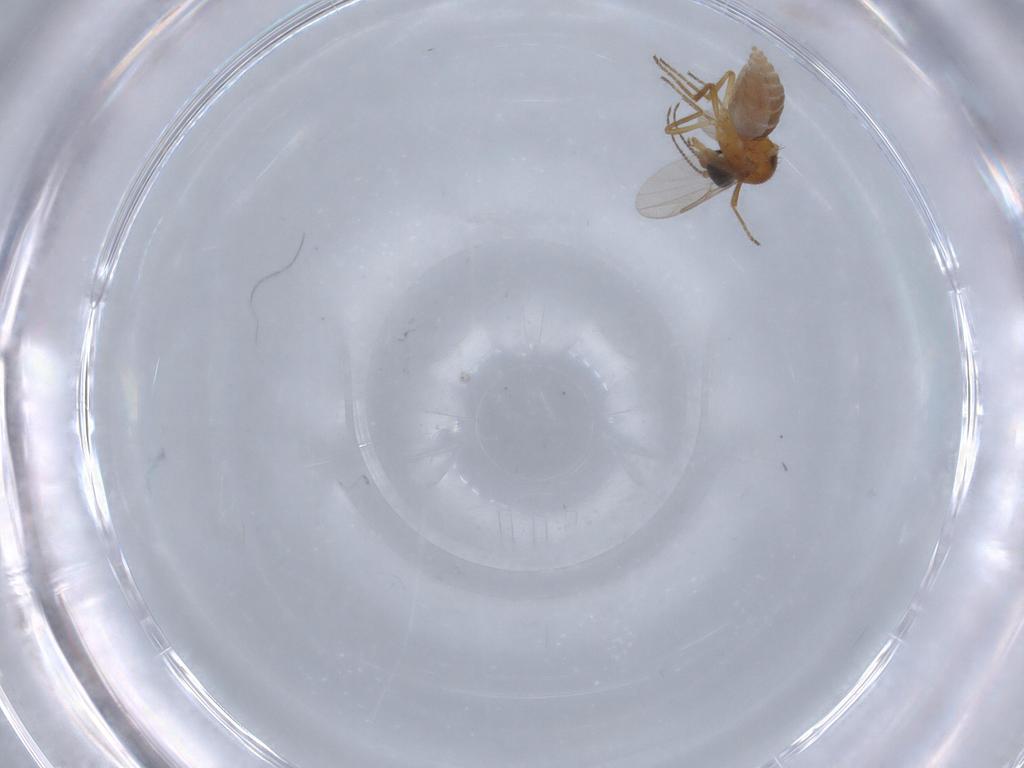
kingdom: Animalia
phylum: Arthropoda
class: Insecta
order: Diptera
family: Ceratopogonidae
